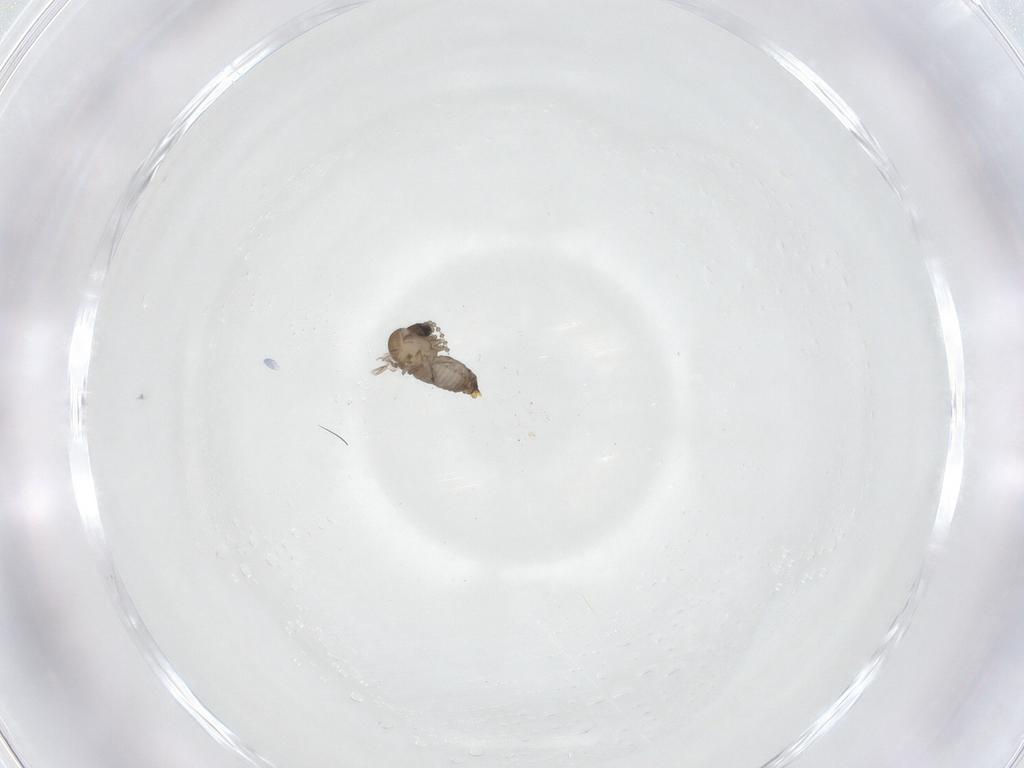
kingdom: Animalia
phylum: Arthropoda
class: Insecta
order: Diptera
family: Psychodidae
